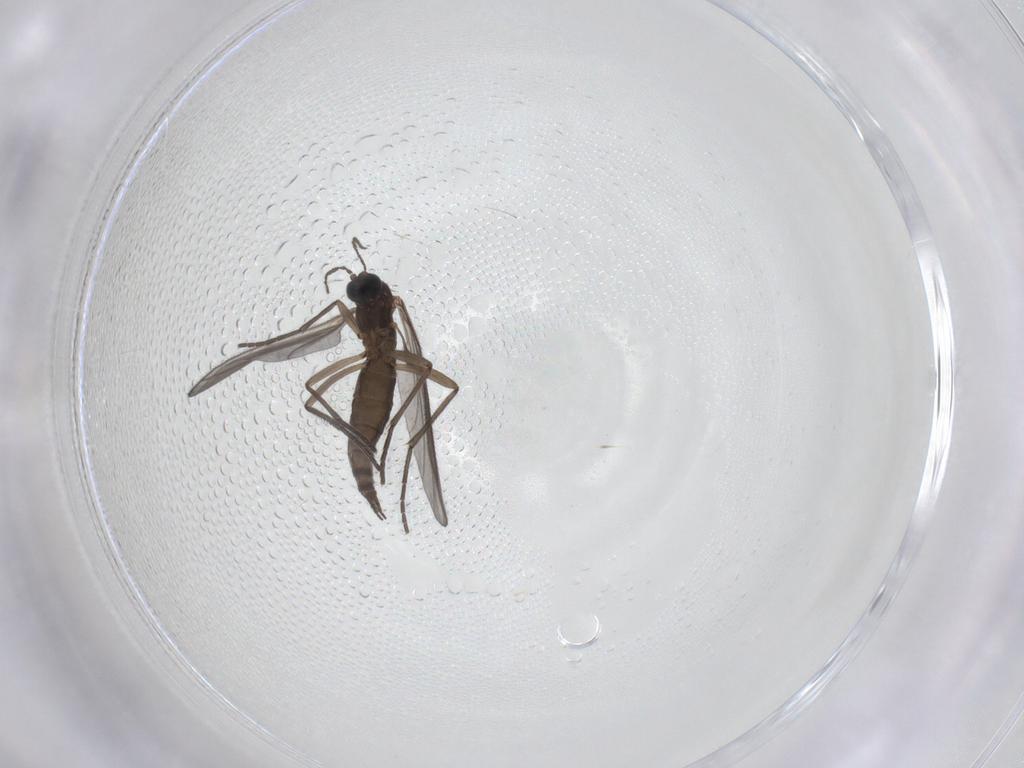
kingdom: Animalia
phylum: Arthropoda
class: Insecta
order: Diptera
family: Sciaridae
